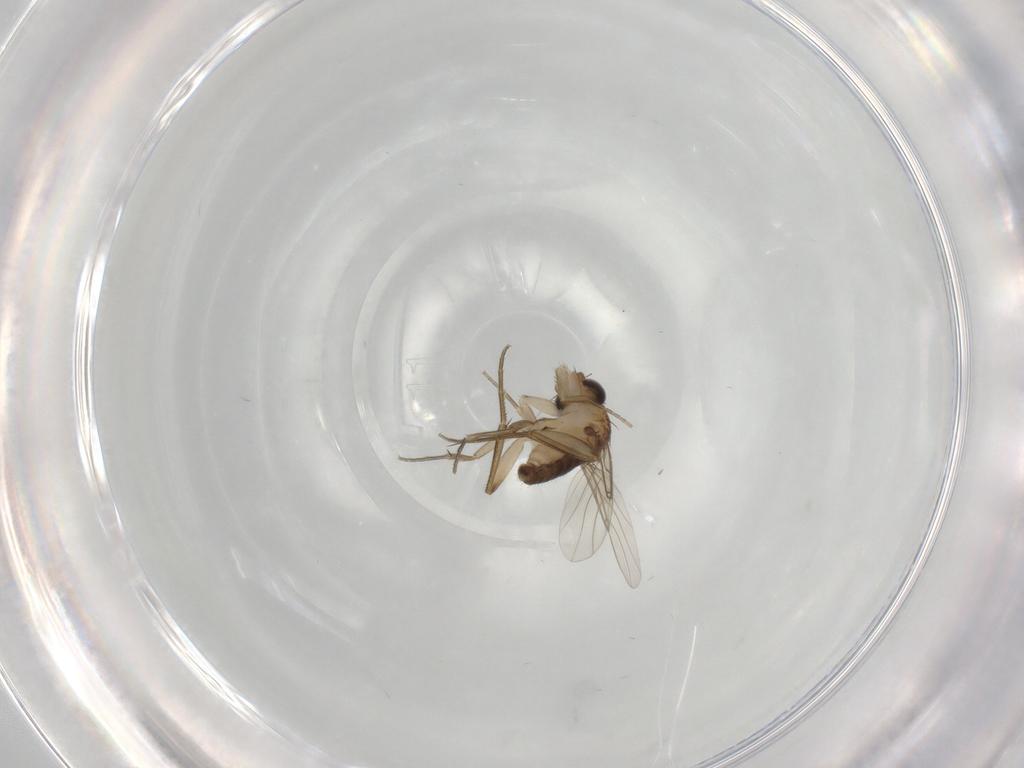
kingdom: Animalia
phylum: Arthropoda
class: Insecta
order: Diptera
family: Phoridae
